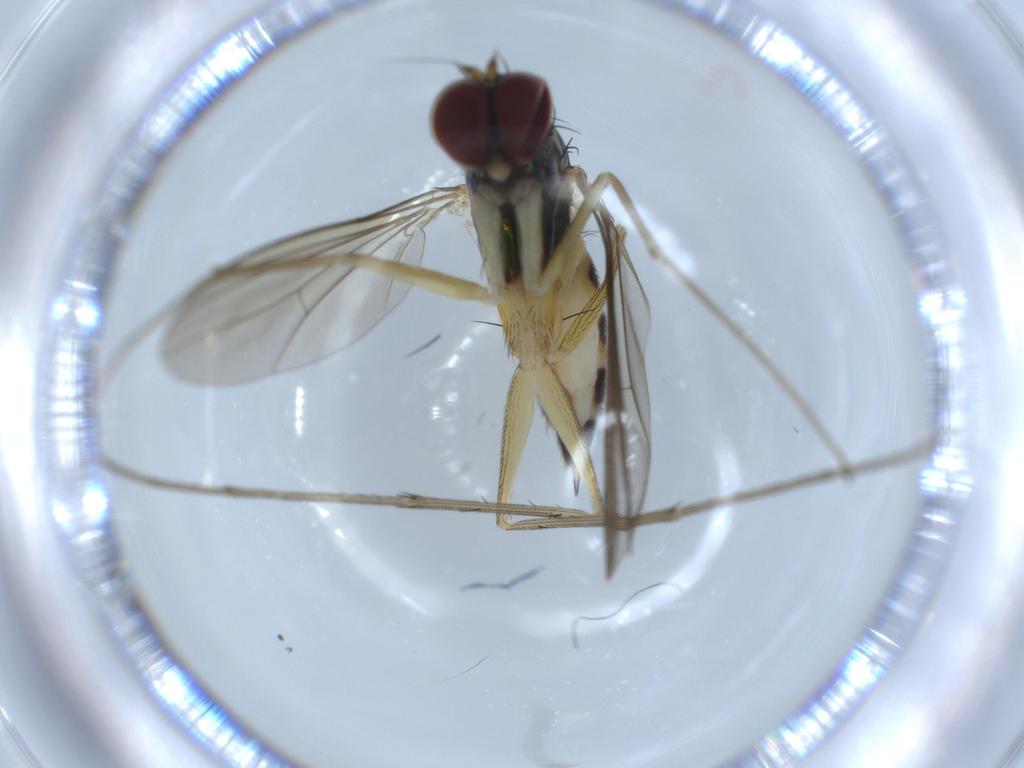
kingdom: Animalia
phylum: Arthropoda
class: Insecta
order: Diptera
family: Dolichopodidae
